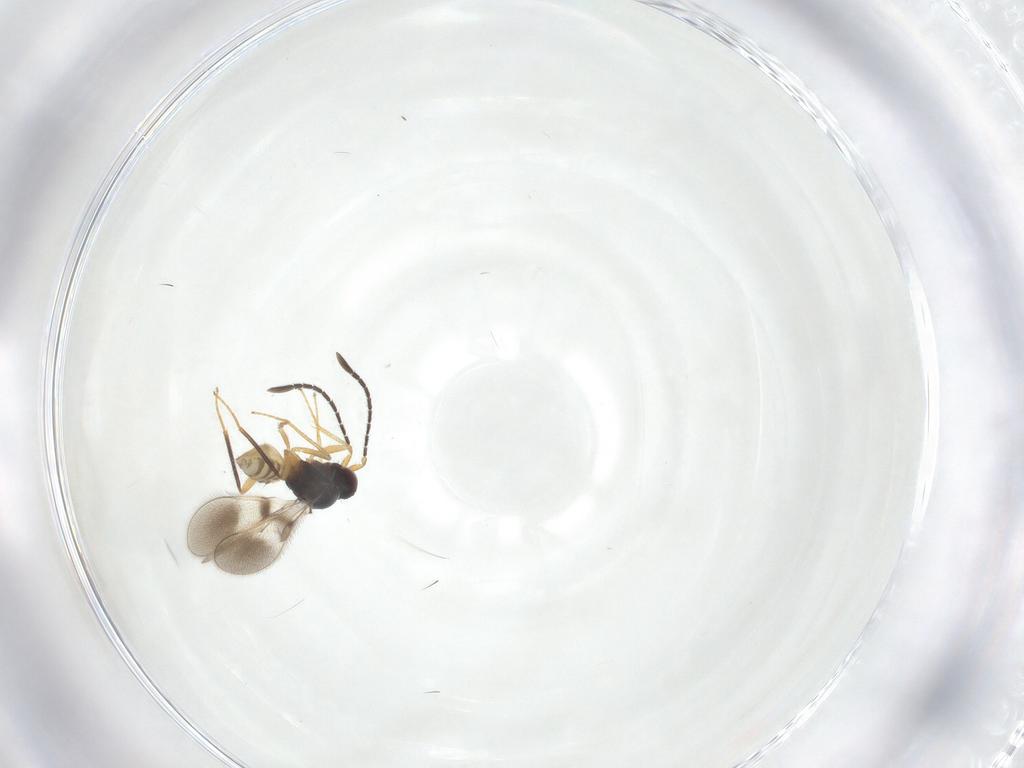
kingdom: Animalia
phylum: Arthropoda
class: Insecta
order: Hymenoptera
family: Mymaridae
